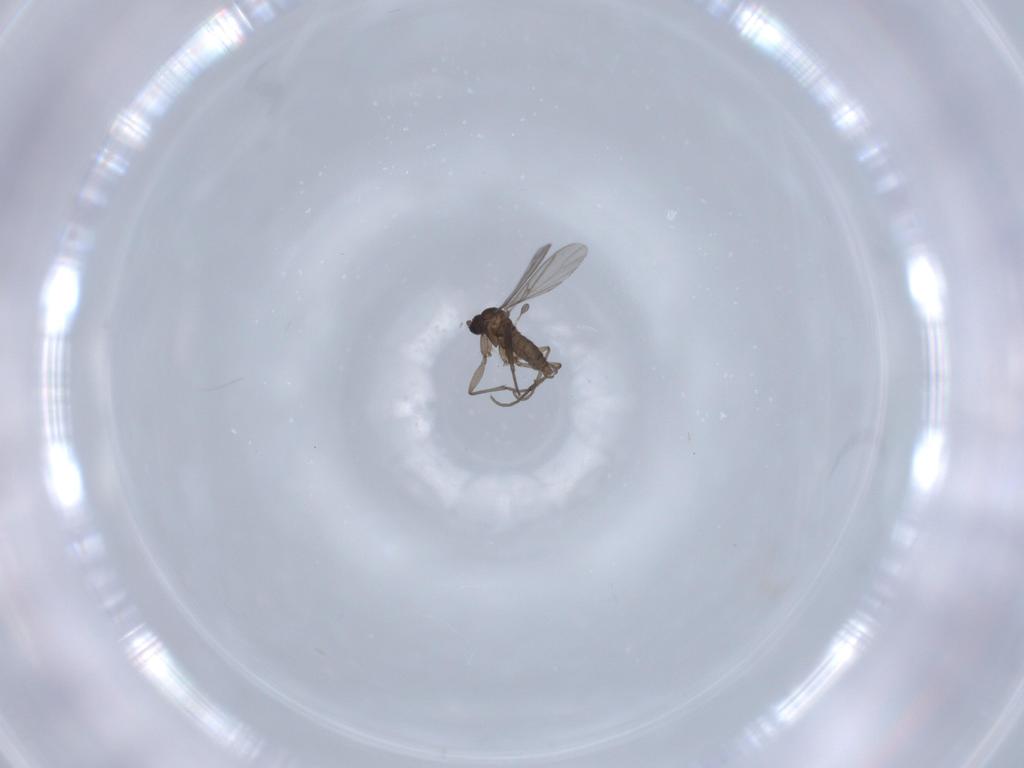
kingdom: Animalia
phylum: Arthropoda
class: Insecta
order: Diptera
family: Sciaridae
